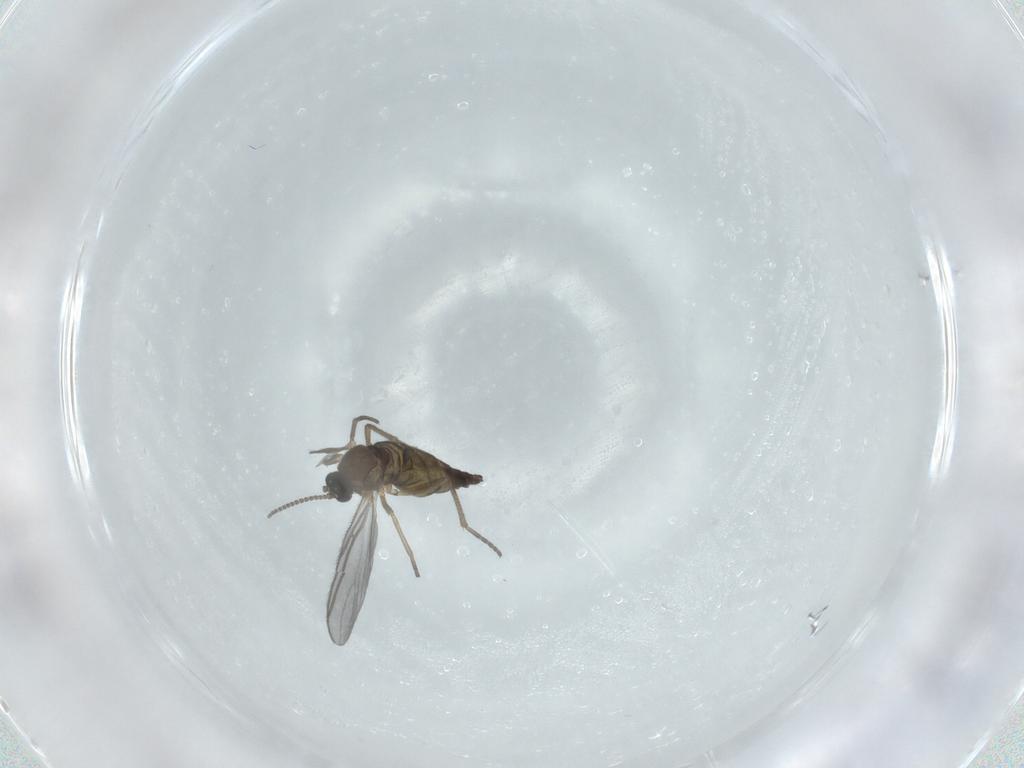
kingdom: Animalia
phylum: Arthropoda
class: Insecta
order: Diptera
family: Sciaridae
